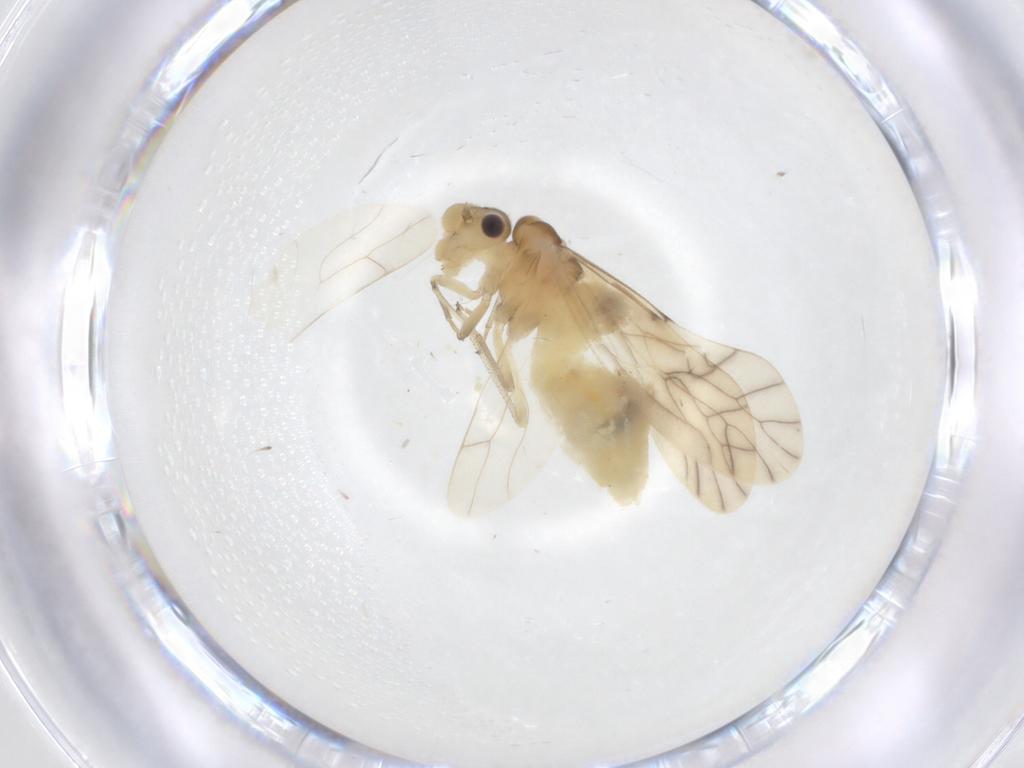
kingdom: Animalia
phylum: Arthropoda
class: Insecta
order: Psocodea
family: Caeciliusidae
